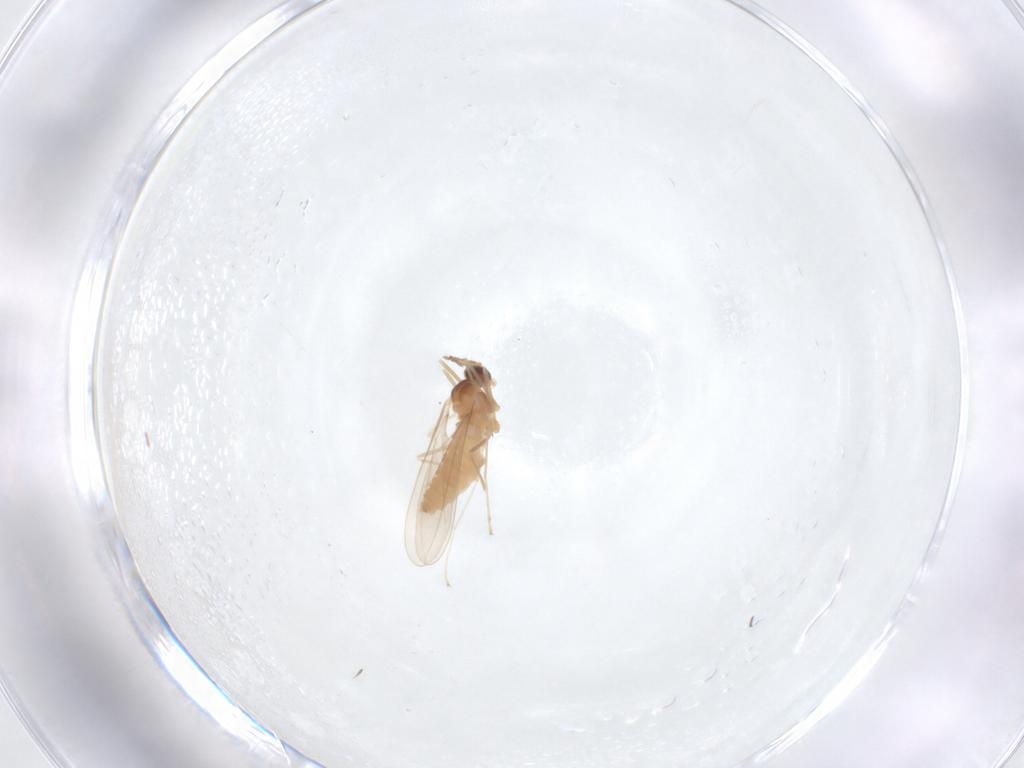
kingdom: Animalia
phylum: Arthropoda
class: Insecta
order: Diptera
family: Cecidomyiidae
